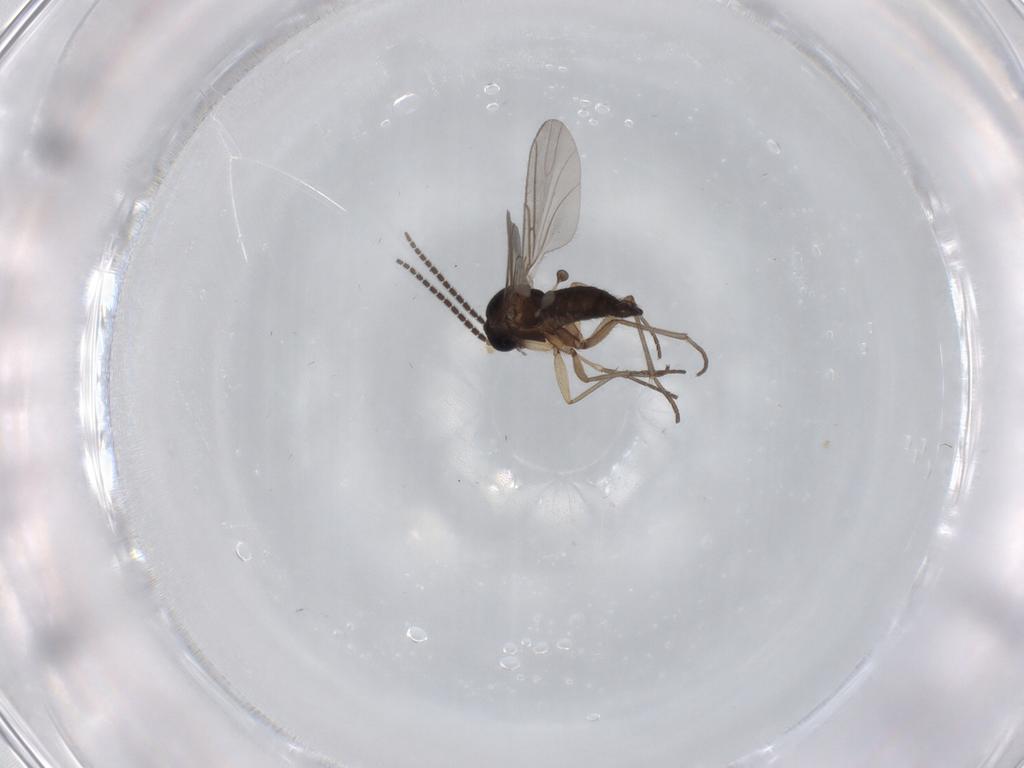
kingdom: Animalia
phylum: Arthropoda
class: Insecta
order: Diptera
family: Sciaridae
